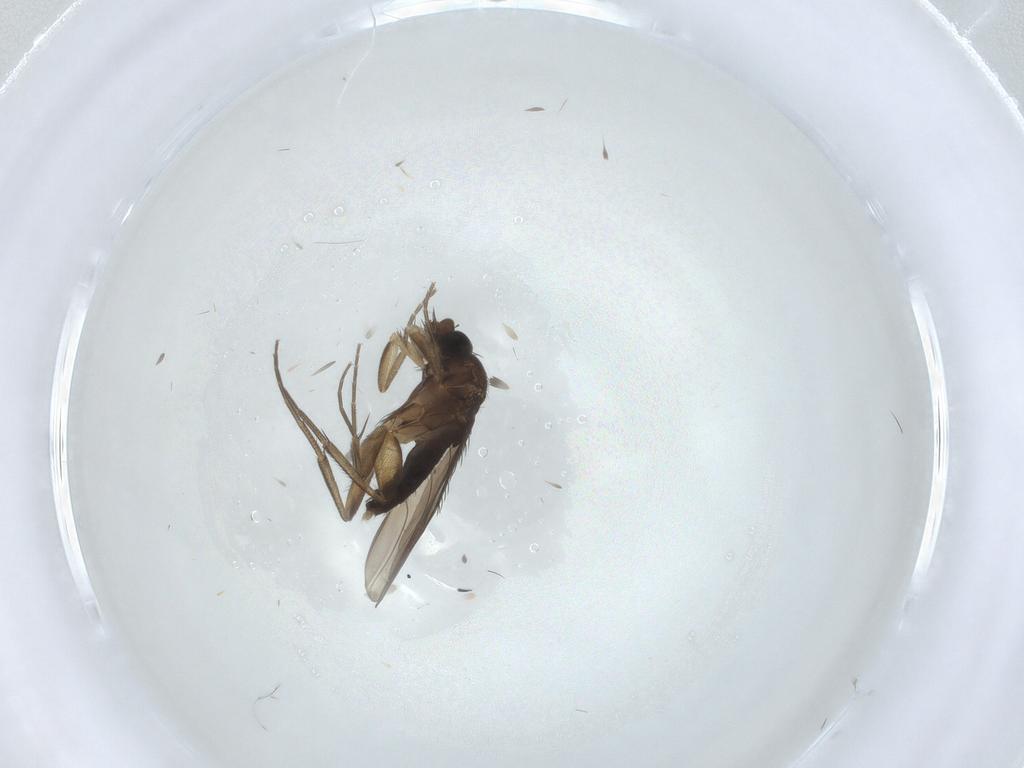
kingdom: Animalia
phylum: Arthropoda
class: Insecta
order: Diptera
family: Phoridae
